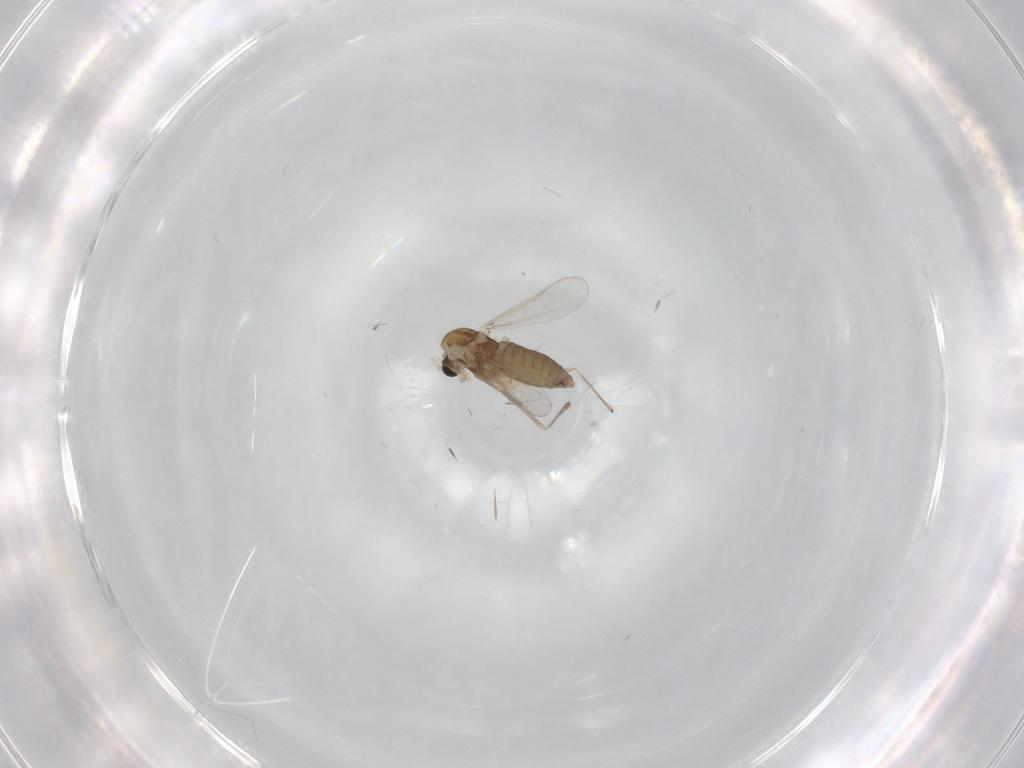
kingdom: Animalia
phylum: Arthropoda
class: Insecta
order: Diptera
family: Chironomidae
